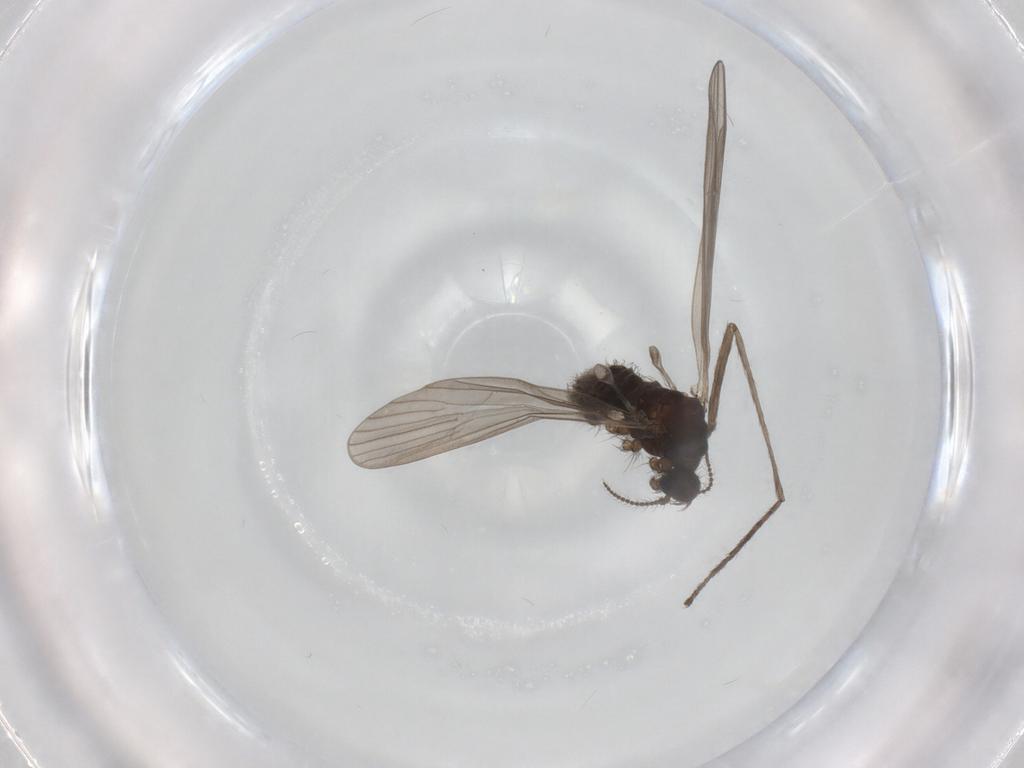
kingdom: Animalia
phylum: Arthropoda
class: Insecta
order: Diptera
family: Limoniidae
